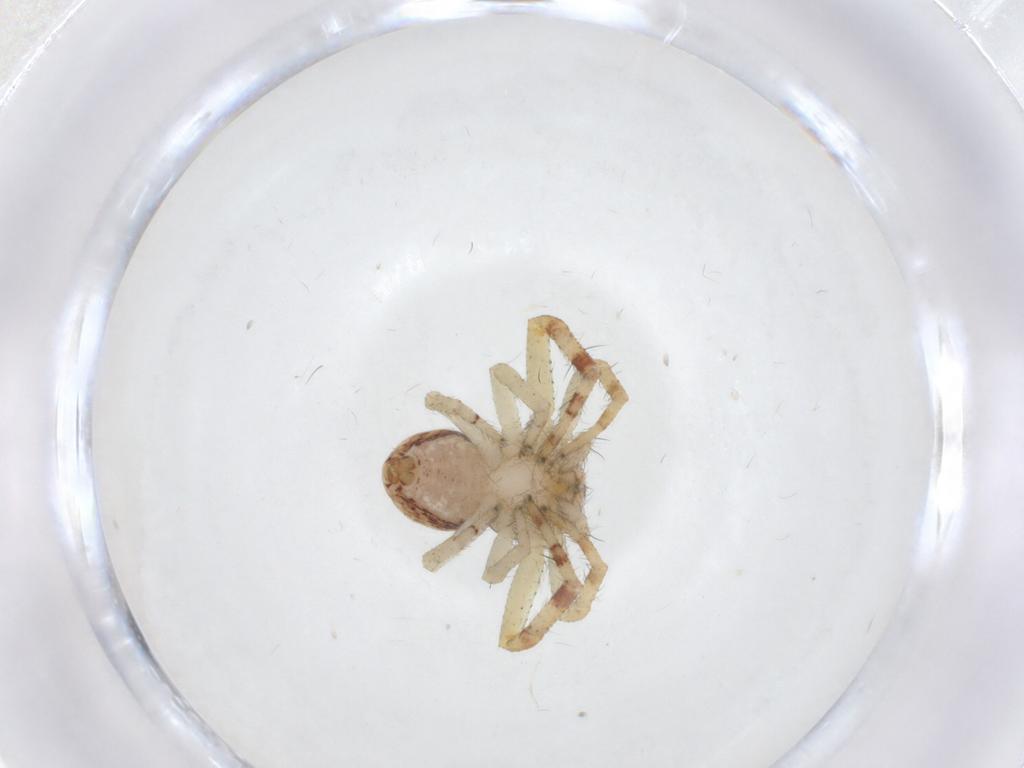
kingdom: Animalia
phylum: Arthropoda
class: Arachnida
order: Araneae
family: Thomisidae
